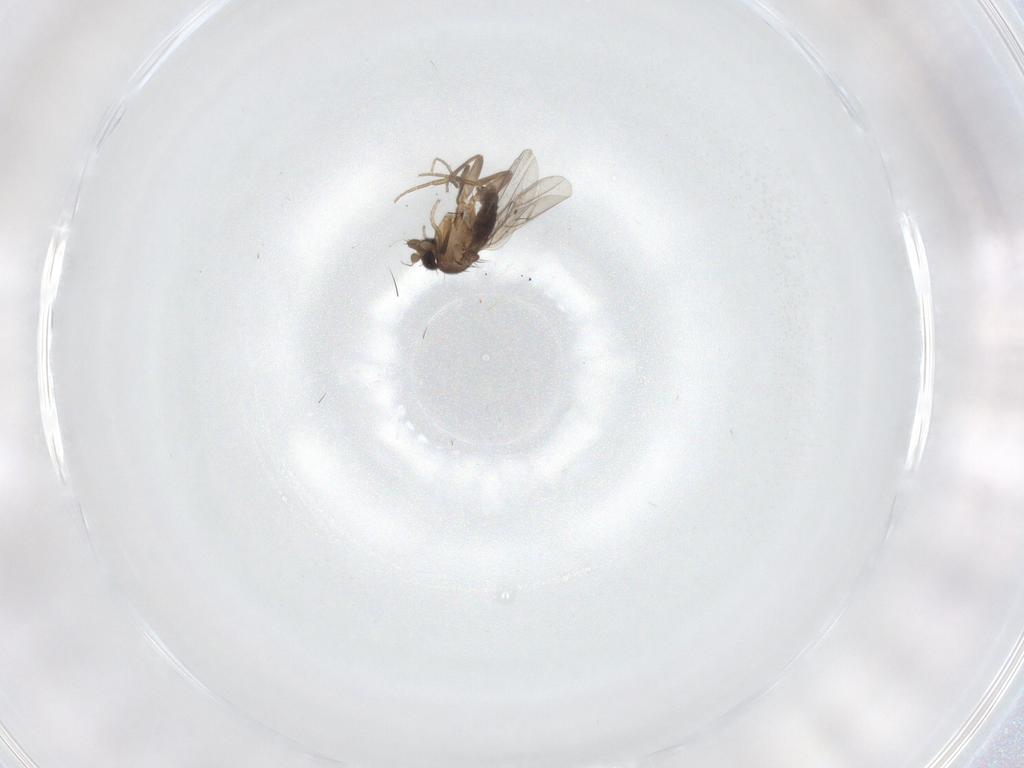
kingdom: Animalia
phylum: Arthropoda
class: Insecta
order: Diptera
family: Phoridae
